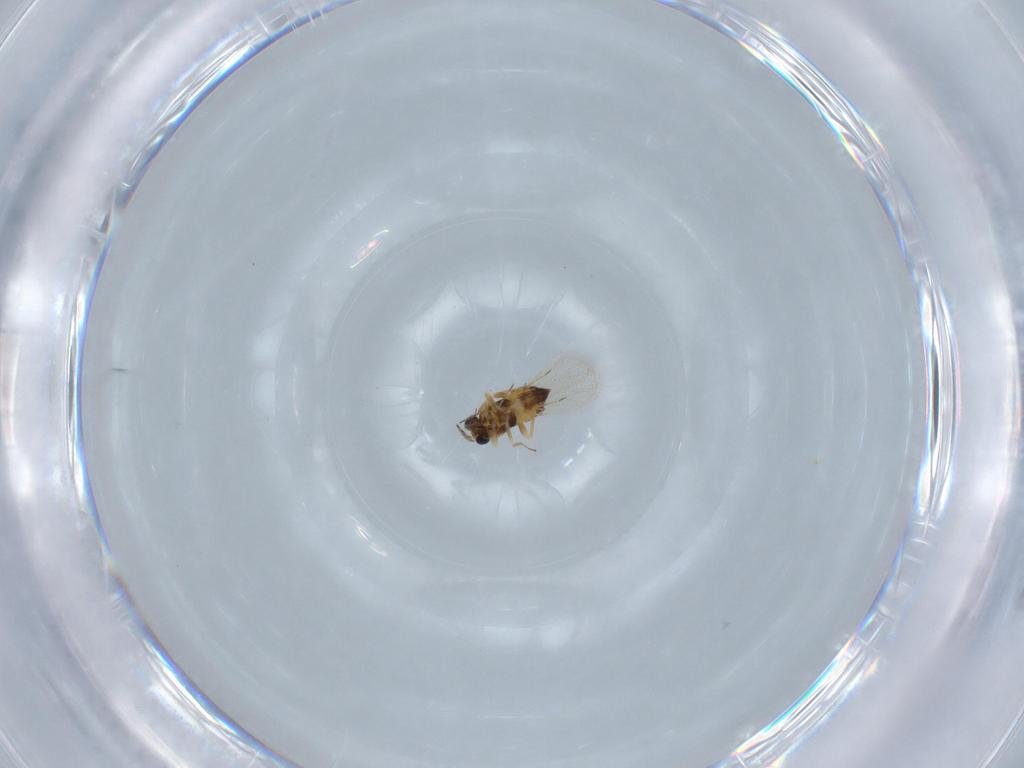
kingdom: Animalia
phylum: Arthropoda
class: Insecta
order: Hymenoptera
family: Trichogrammatidae
